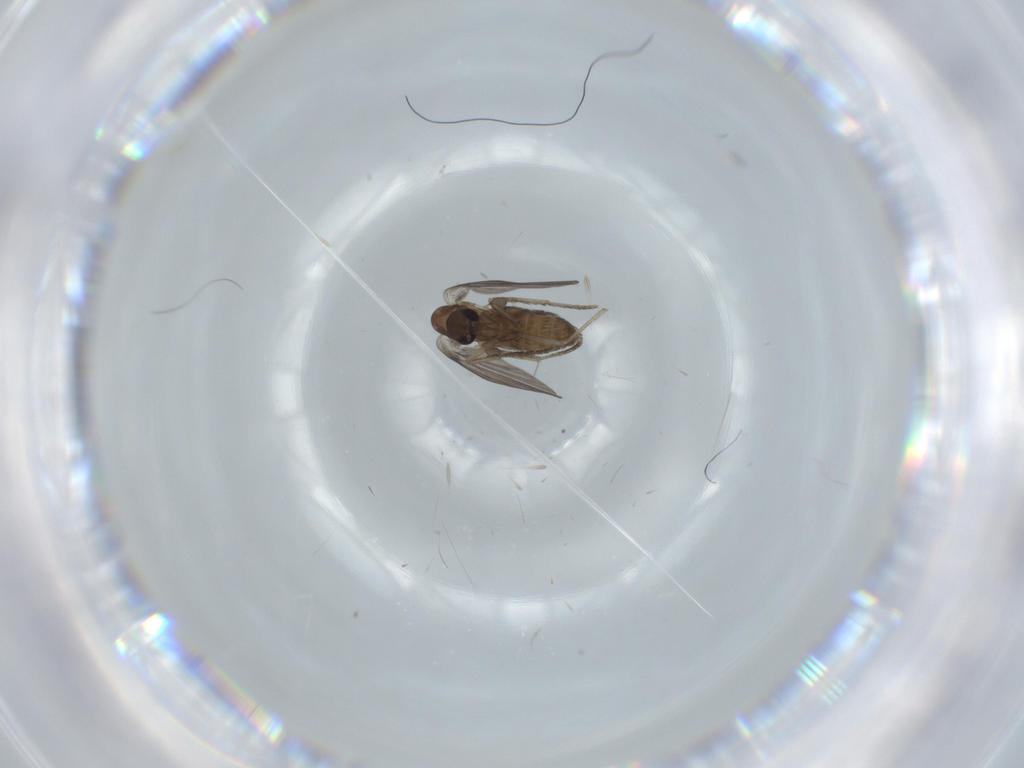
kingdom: Animalia
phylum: Arthropoda
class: Insecta
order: Diptera
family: Phoridae
